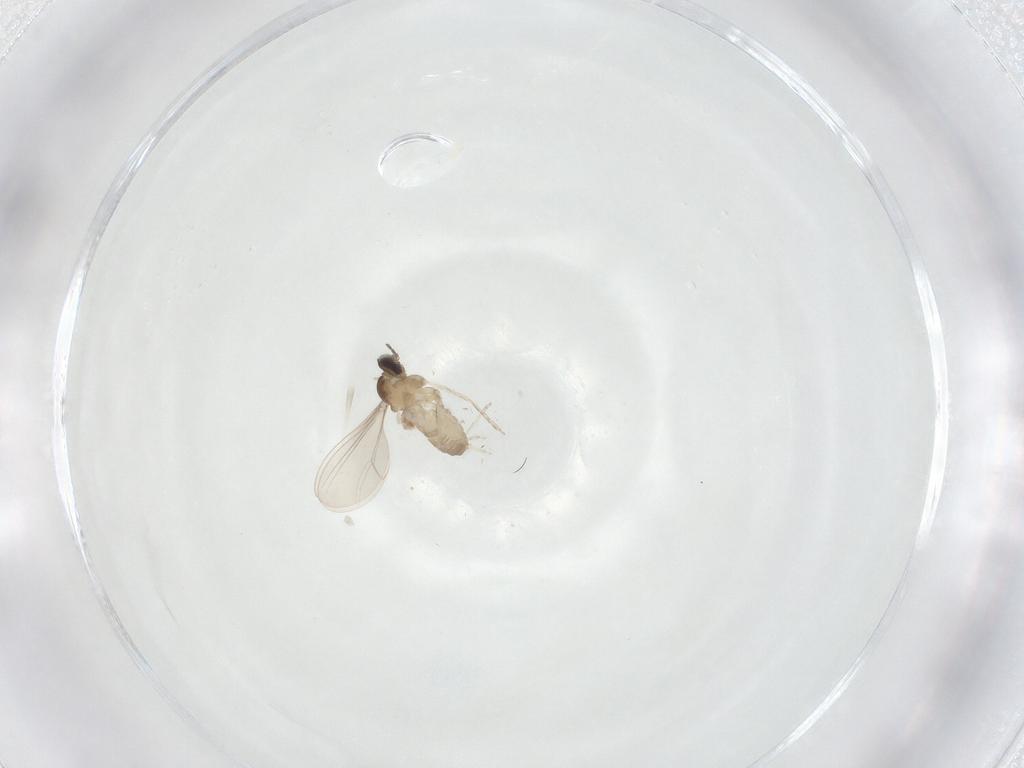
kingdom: Animalia
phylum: Arthropoda
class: Insecta
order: Diptera
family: Cecidomyiidae
